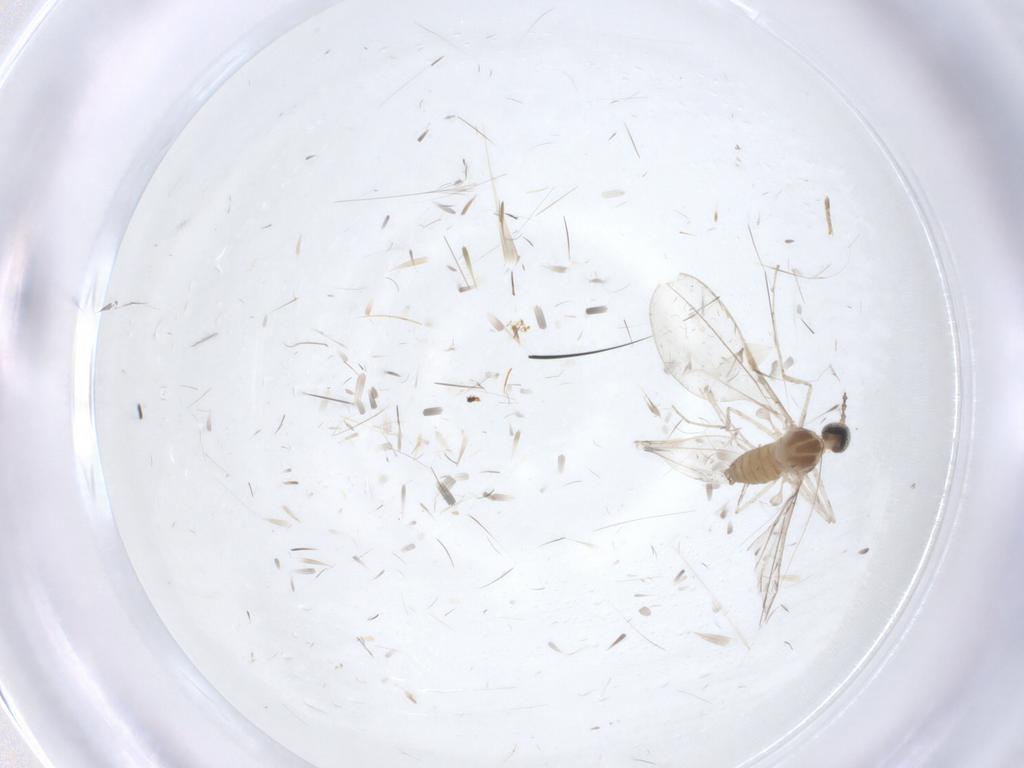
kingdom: Animalia
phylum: Arthropoda
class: Insecta
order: Diptera
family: Cecidomyiidae
